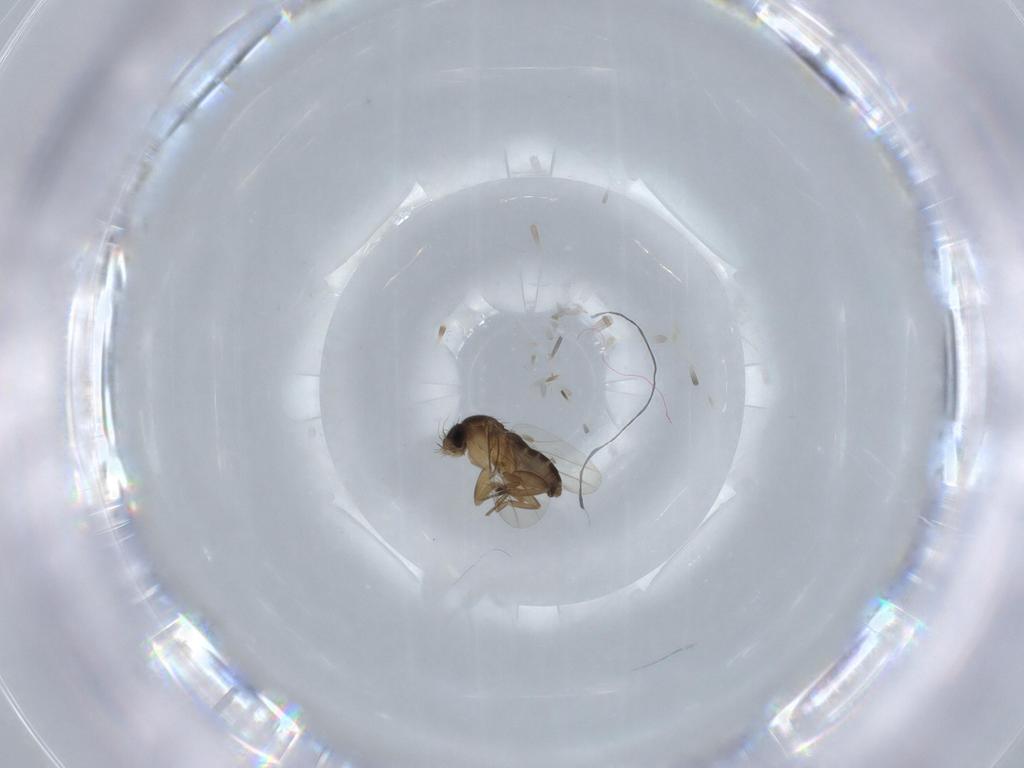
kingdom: Animalia
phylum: Arthropoda
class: Insecta
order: Diptera
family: Phoridae
